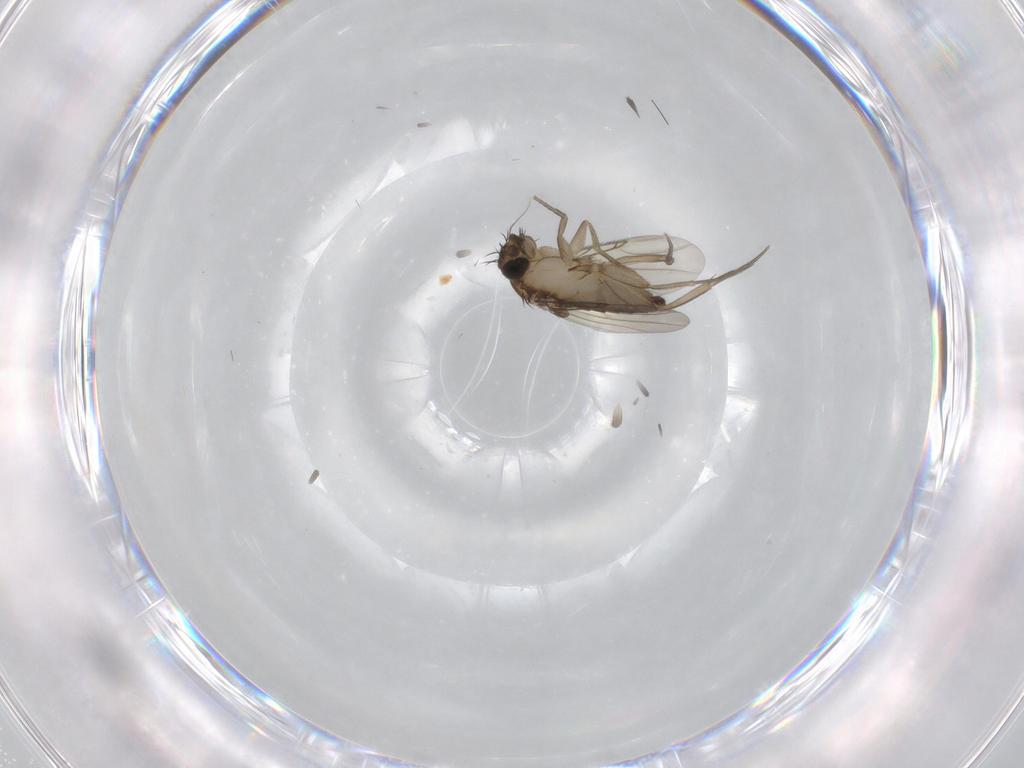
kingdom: Animalia
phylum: Arthropoda
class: Insecta
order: Diptera
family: Phoridae
